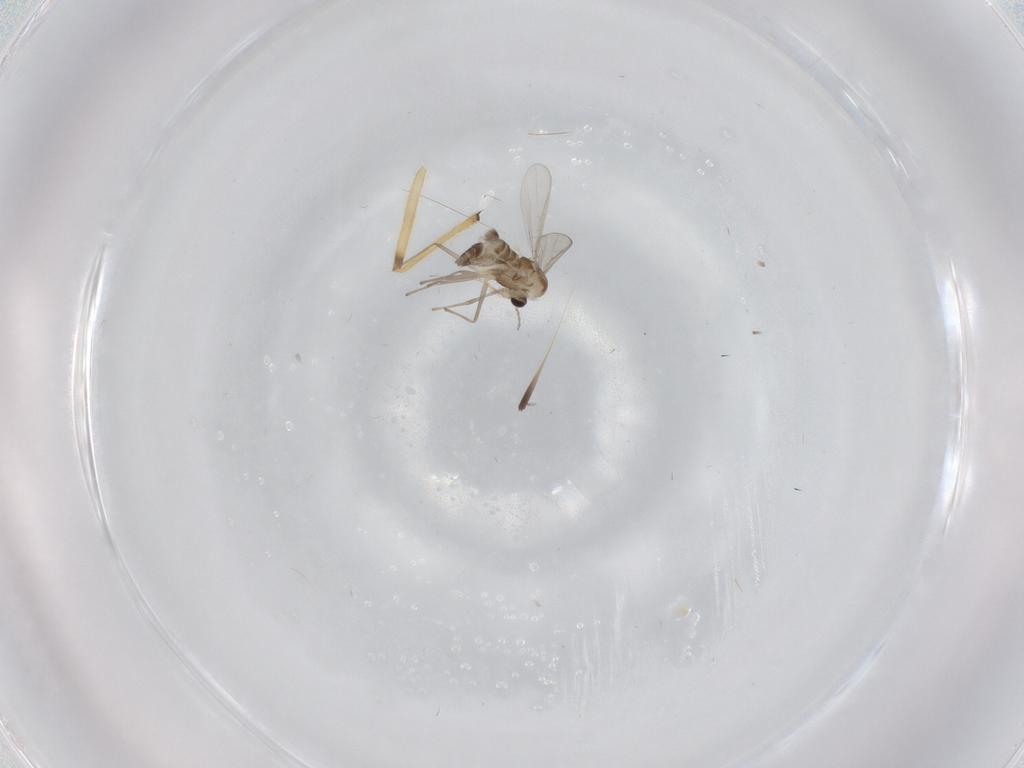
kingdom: Animalia
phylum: Arthropoda
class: Insecta
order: Diptera
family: Chironomidae
